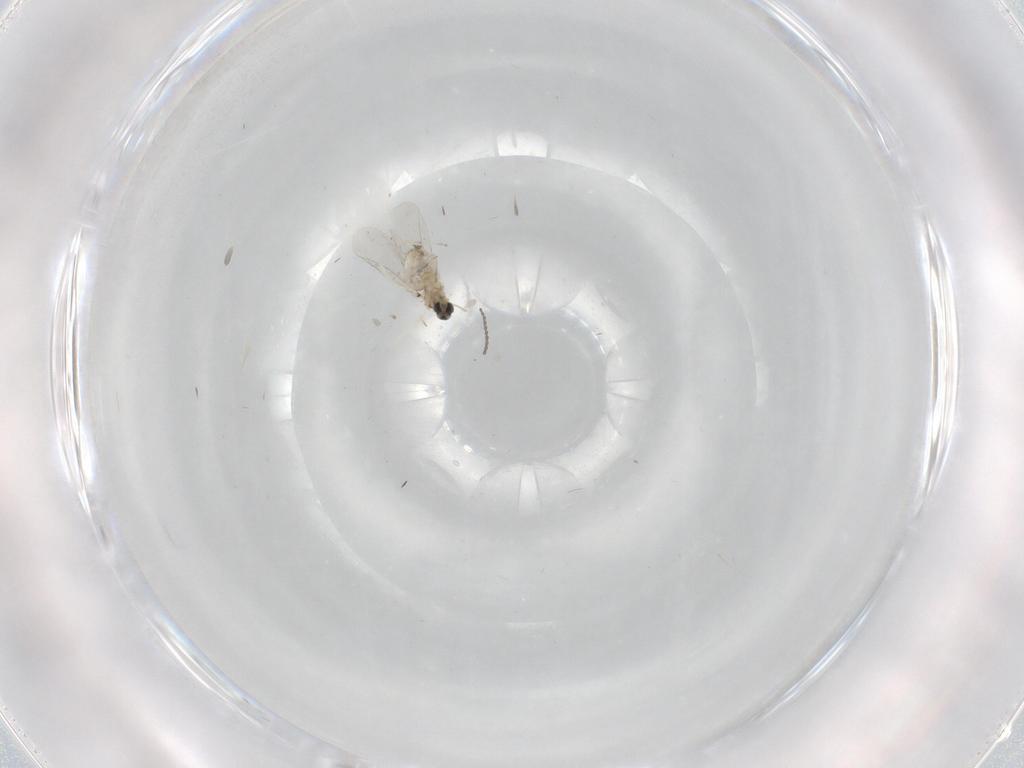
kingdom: Animalia
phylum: Arthropoda
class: Insecta
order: Diptera
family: Cecidomyiidae
